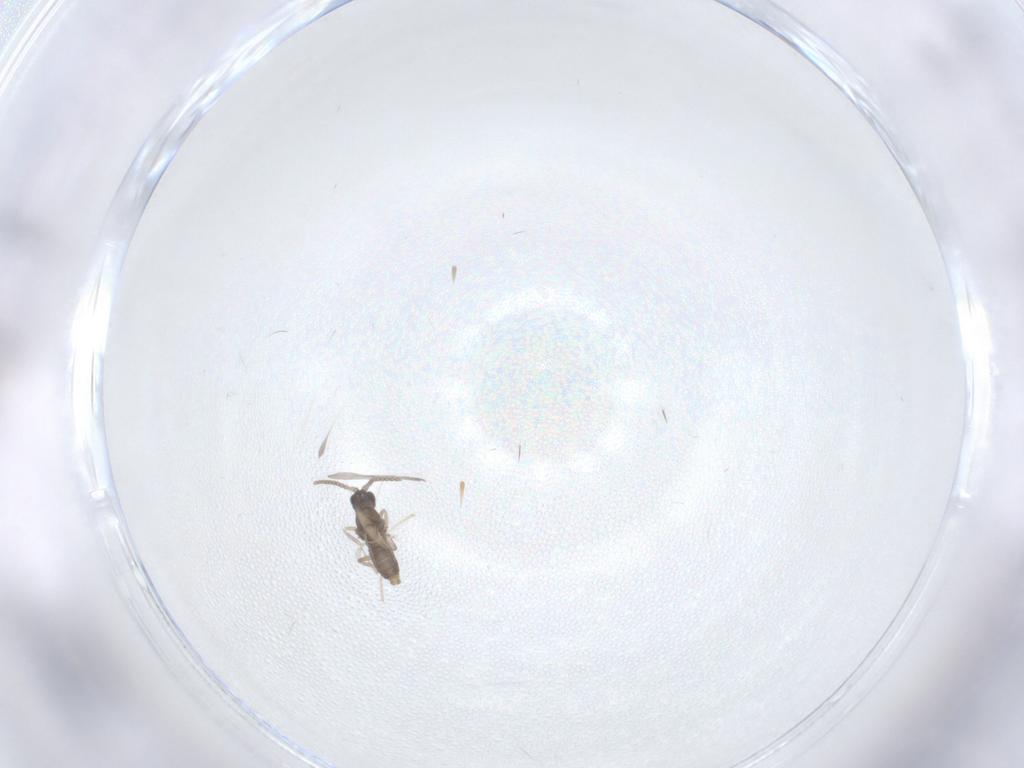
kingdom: Animalia
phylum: Arthropoda
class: Insecta
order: Diptera
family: Cecidomyiidae
